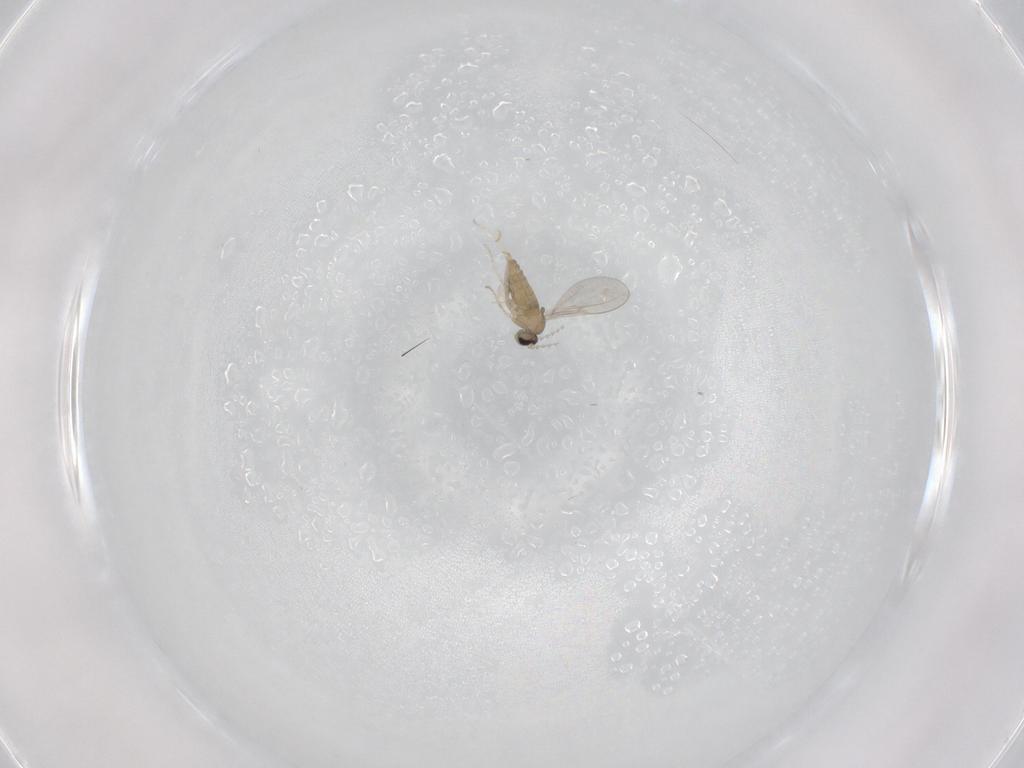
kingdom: Animalia
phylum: Arthropoda
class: Insecta
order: Diptera
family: Cecidomyiidae
